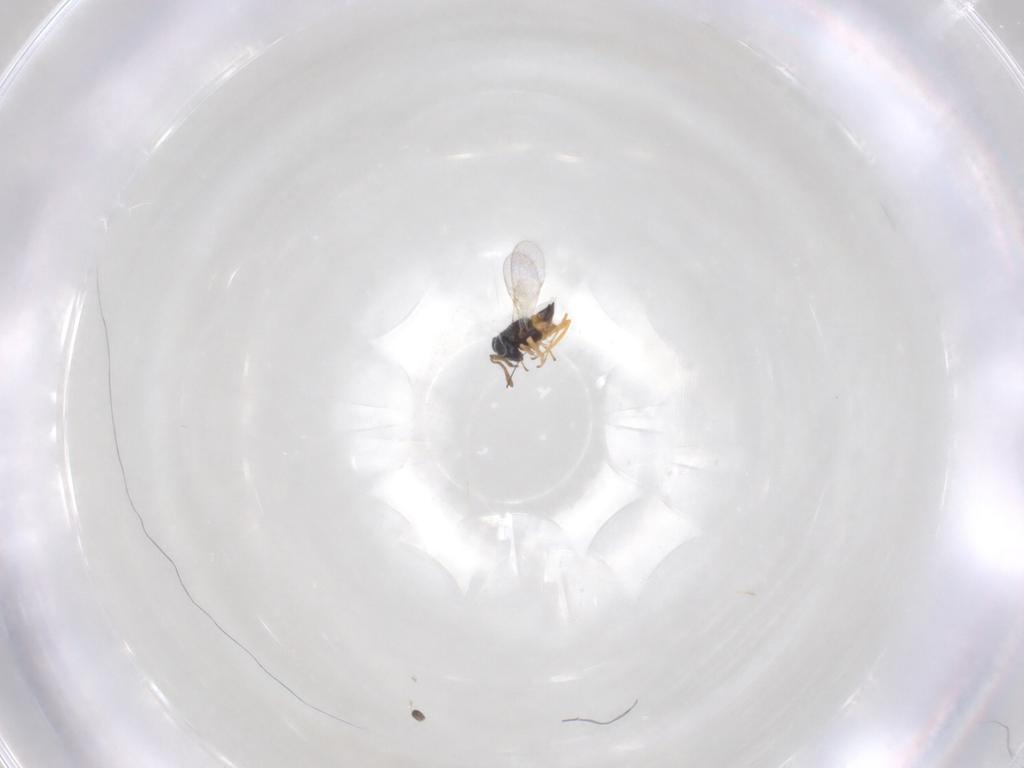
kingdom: Animalia
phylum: Arthropoda
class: Insecta
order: Hymenoptera
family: Encyrtidae
